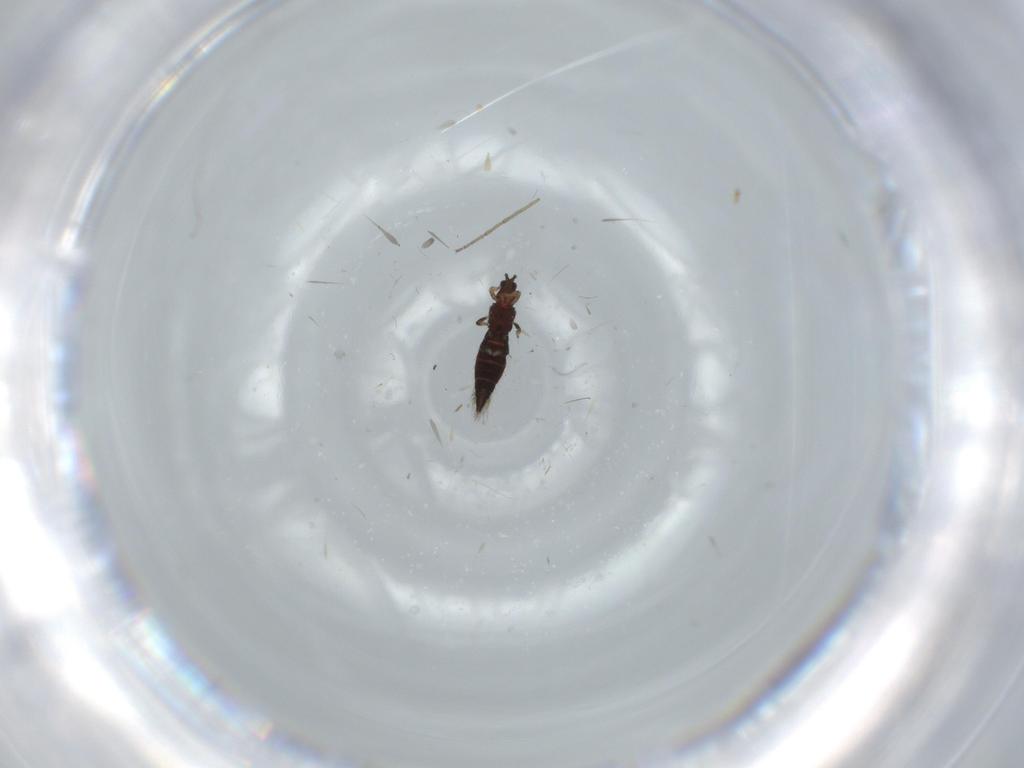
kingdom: Animalia
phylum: Arthropoda
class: Insecta
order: Thysanoptera
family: Thripidae
